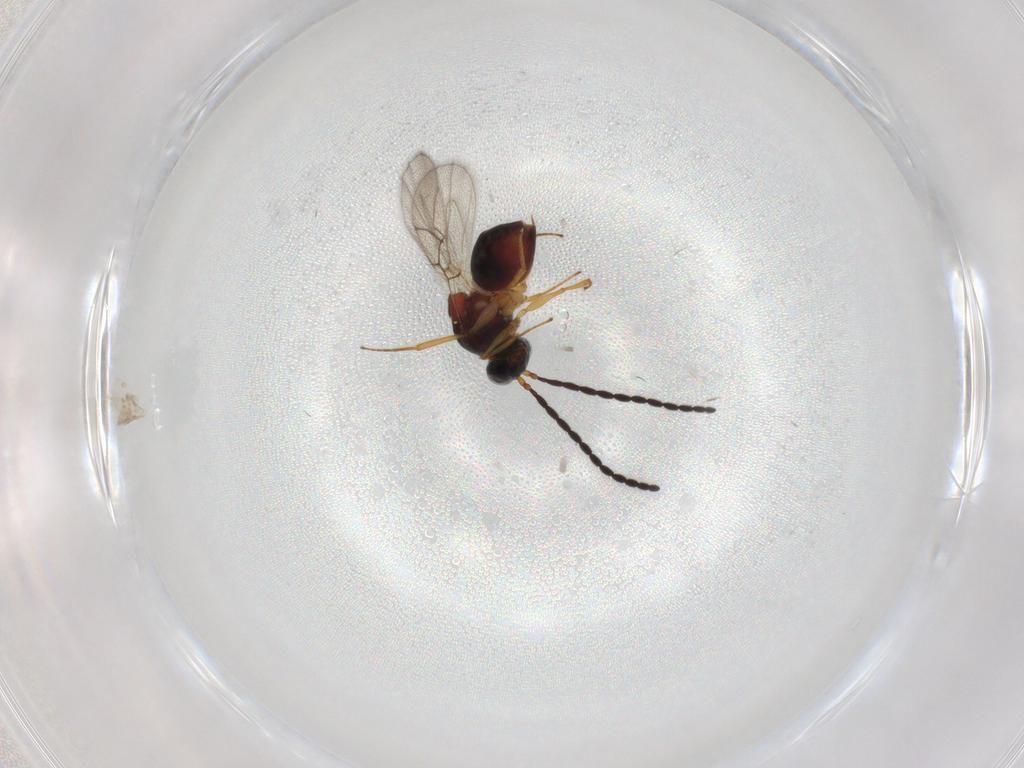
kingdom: Animalia
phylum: Arthropoda
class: Insecta
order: Hymenoptera
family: Figitidae
